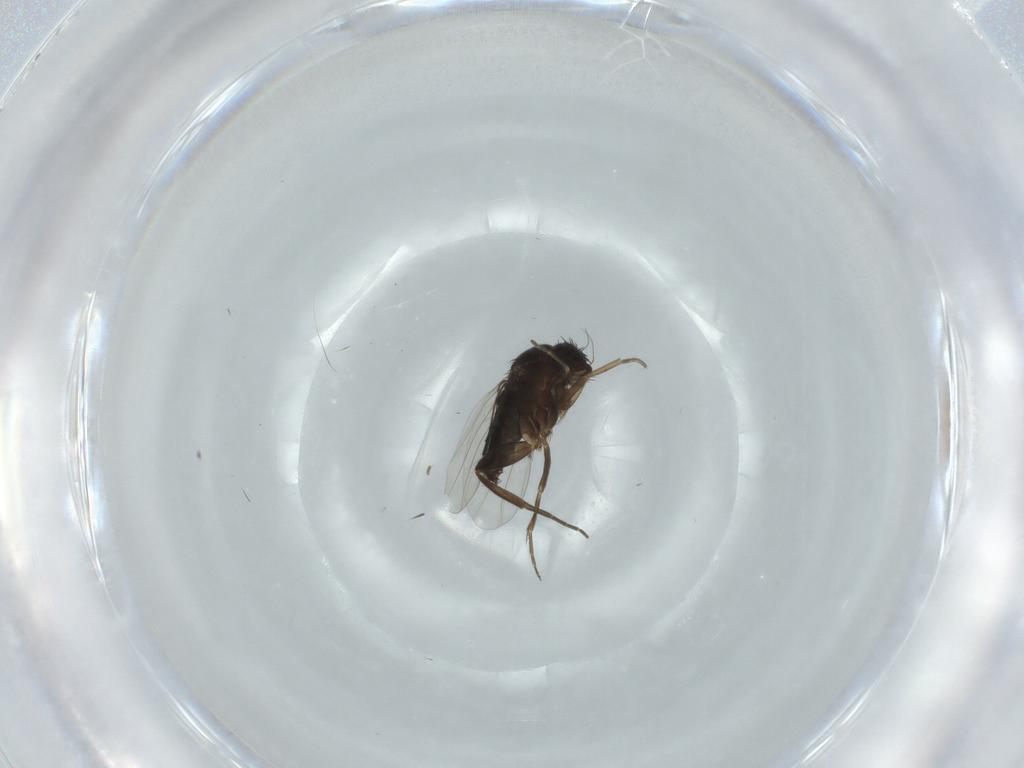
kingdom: Animalia
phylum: Arthropoda
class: Insecta
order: Diptera
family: Phoridae
